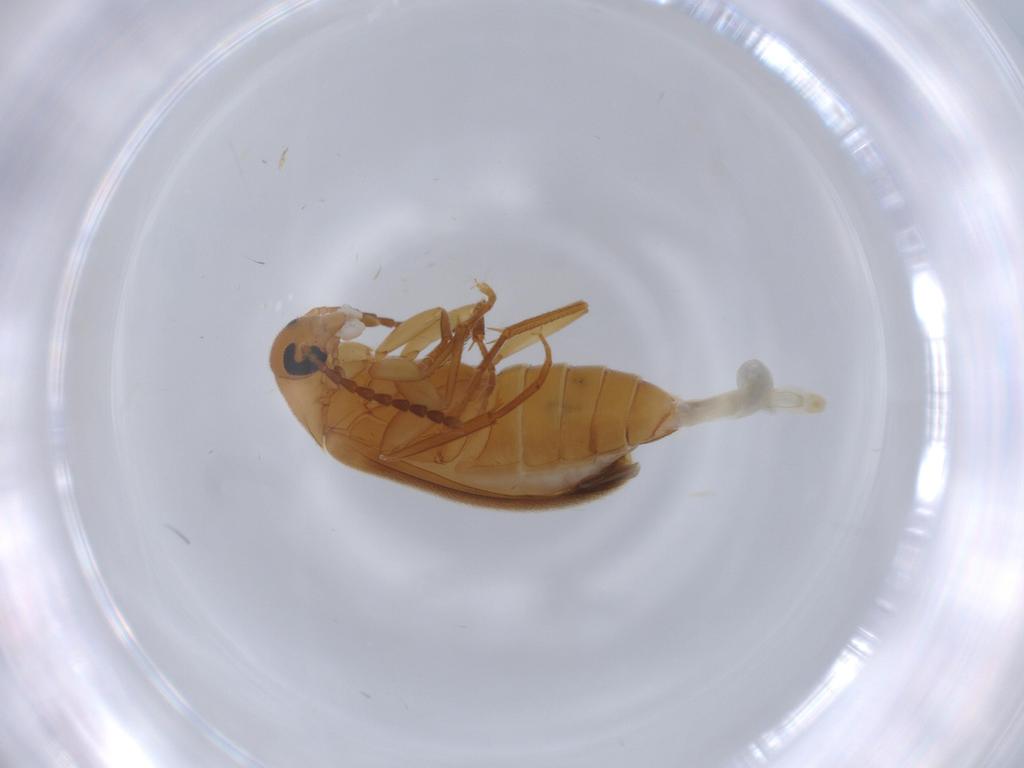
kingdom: Animalia
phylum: Arthropoda
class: Insecta
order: Coleoptera
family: Scraptiidae
